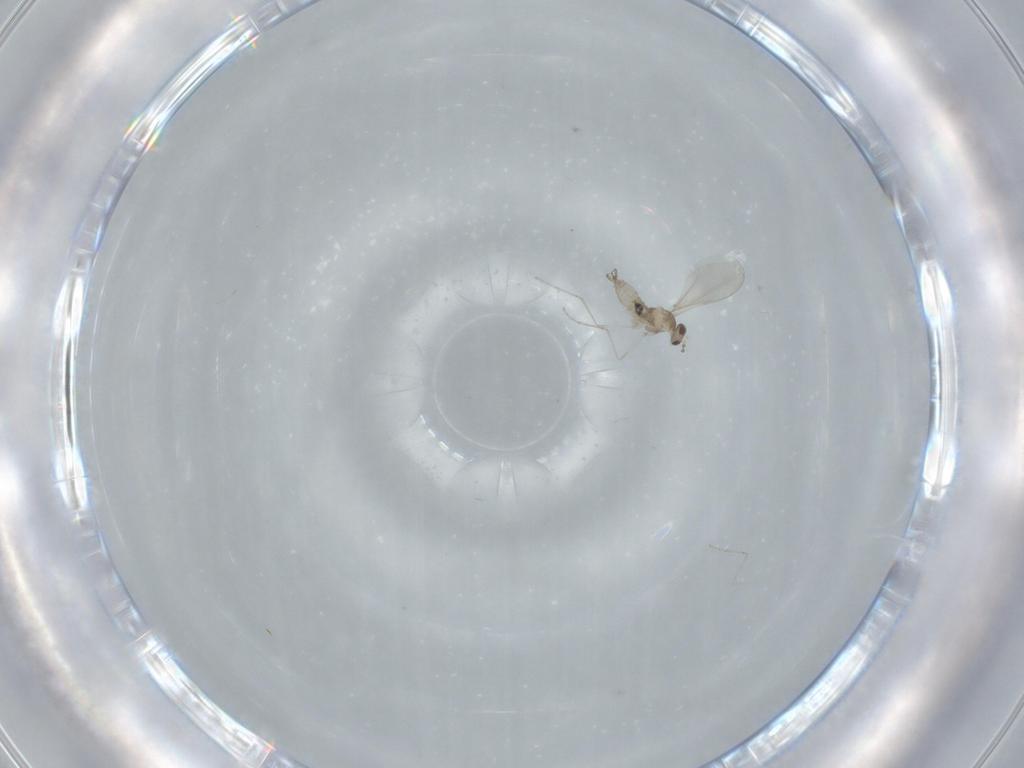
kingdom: Animalia
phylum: Arthropoda
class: Insecta
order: Diptera
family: Cecidomyiidae
